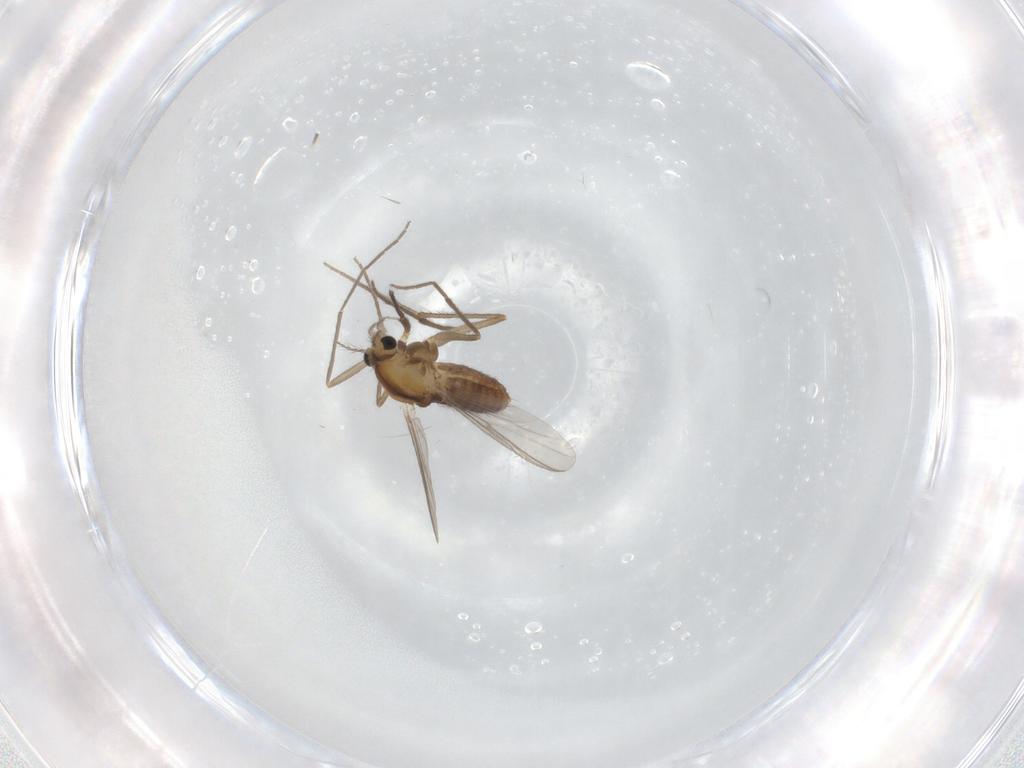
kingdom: Animalia
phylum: Arthropoda
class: Insecta
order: Diptera
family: Chironomidae
